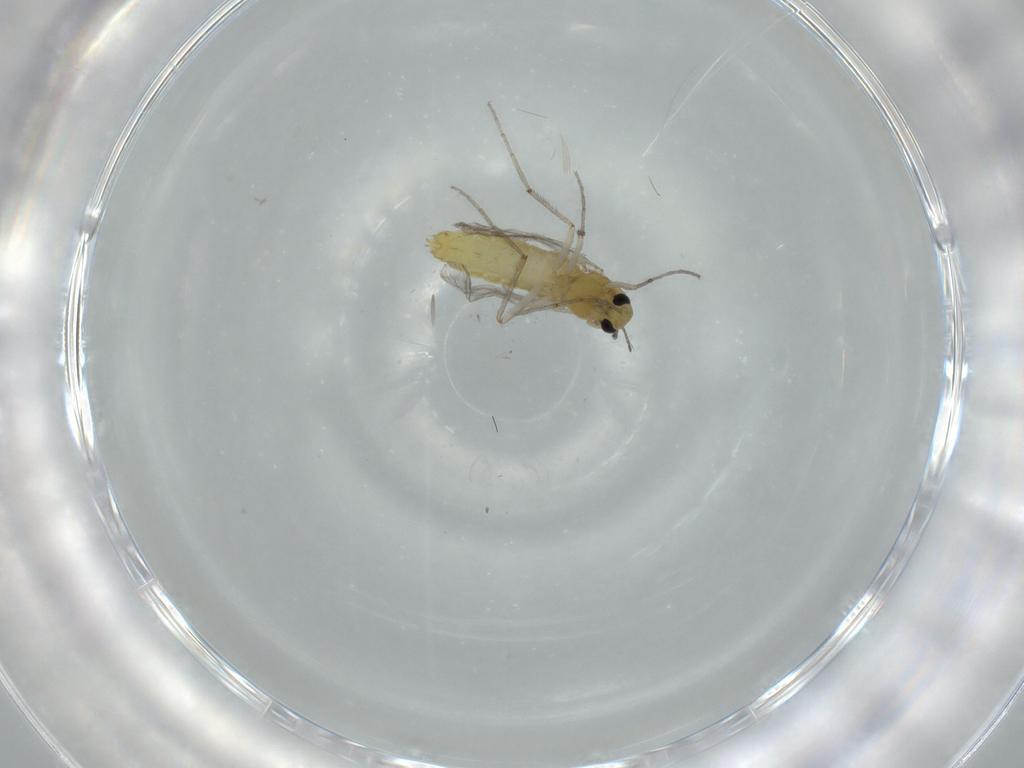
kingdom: Animalia
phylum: Arthropoda
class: Insecta
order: Diptera
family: Chironomidae
